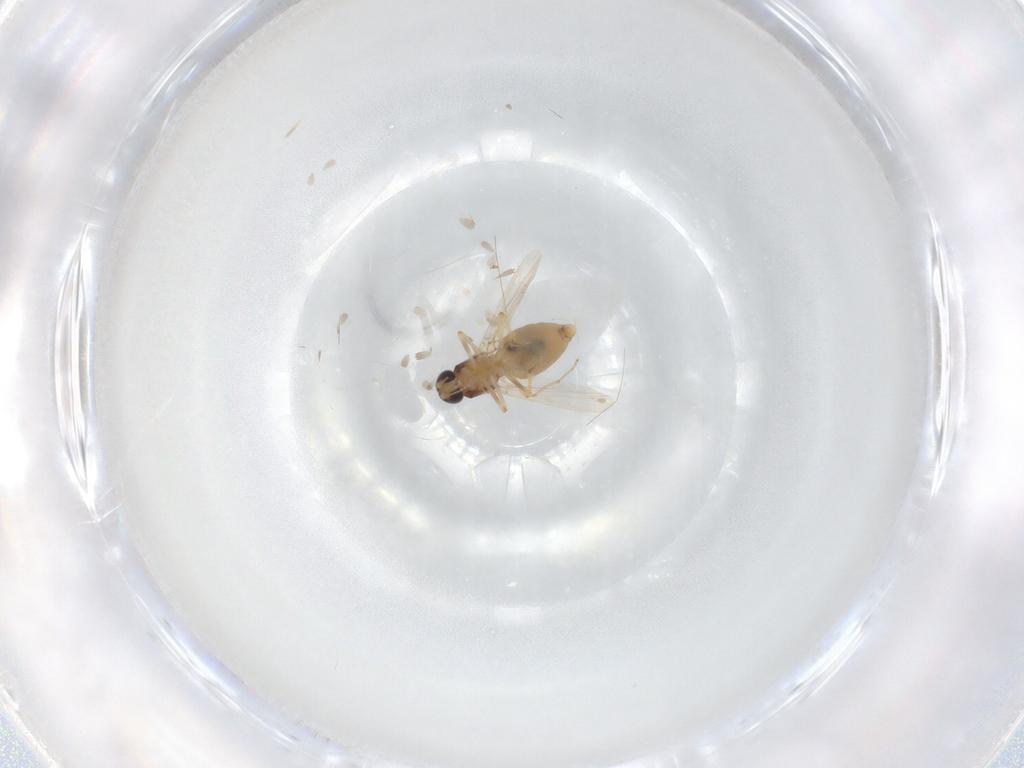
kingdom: Animalia
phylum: Arthropoda
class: Insecta
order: Diptera
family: Ceratopogonidae
